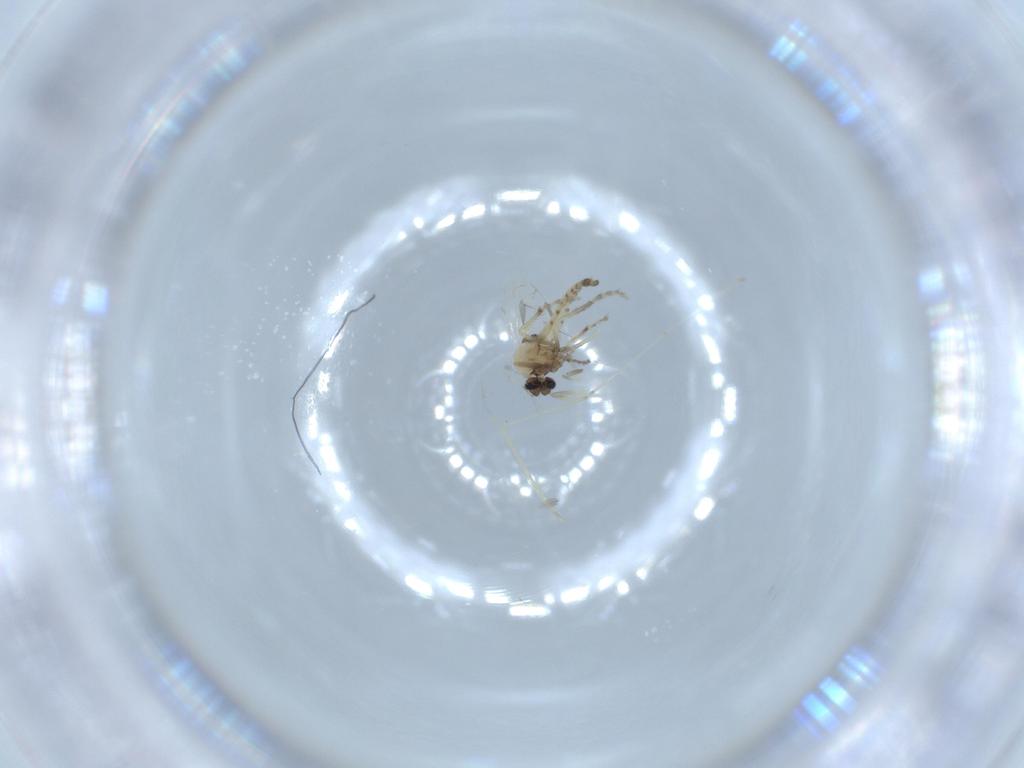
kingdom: Animalia
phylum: Arthropoda
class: Insecta
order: Diptera
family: Cecidomyiidae
